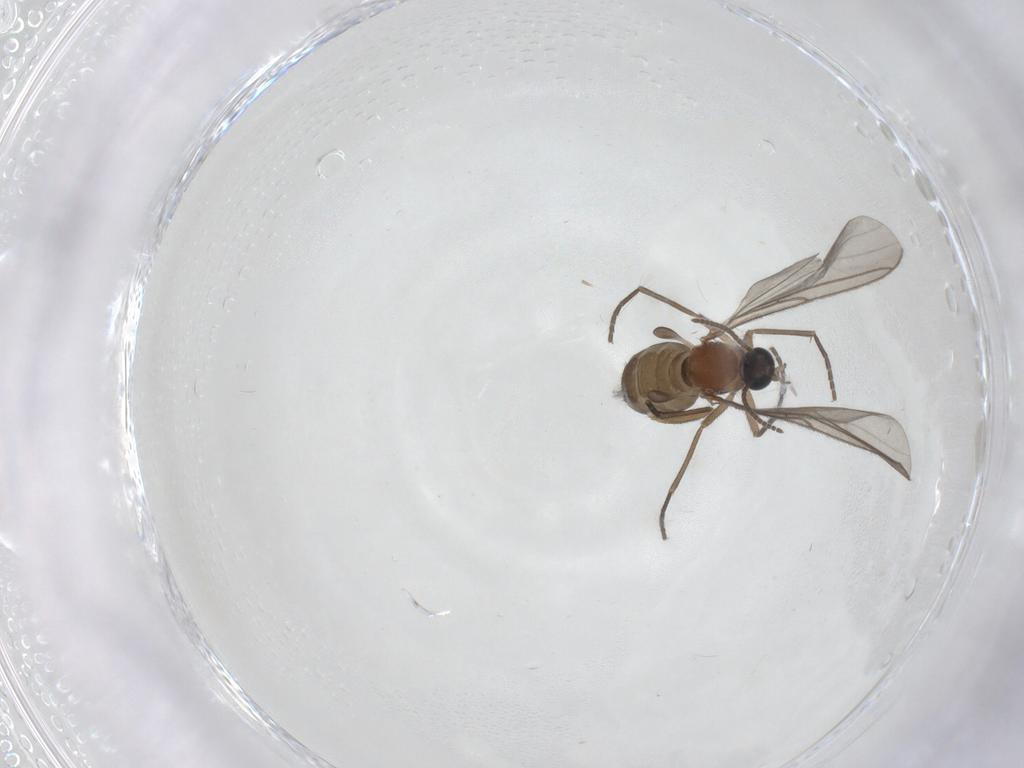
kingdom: Animalia
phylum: Arthropoda
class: Insecta
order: Diptera
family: Sciaridae
